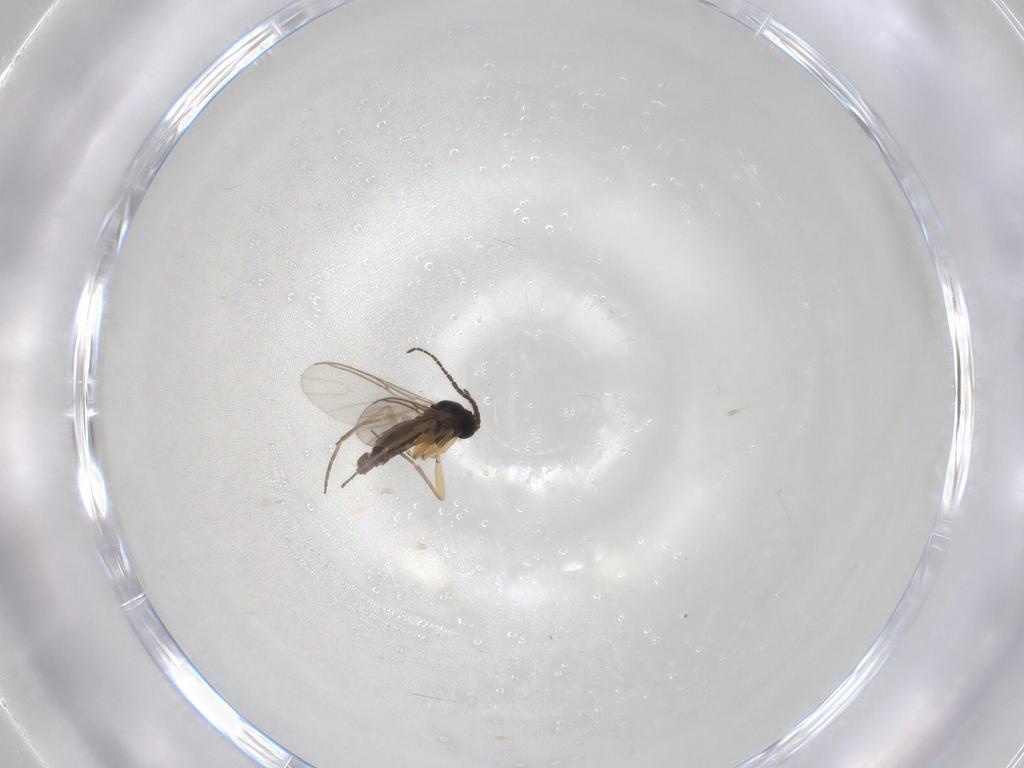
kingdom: Animalia
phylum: Arthropoda
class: Insecta
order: Diptera
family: Sciaridae
